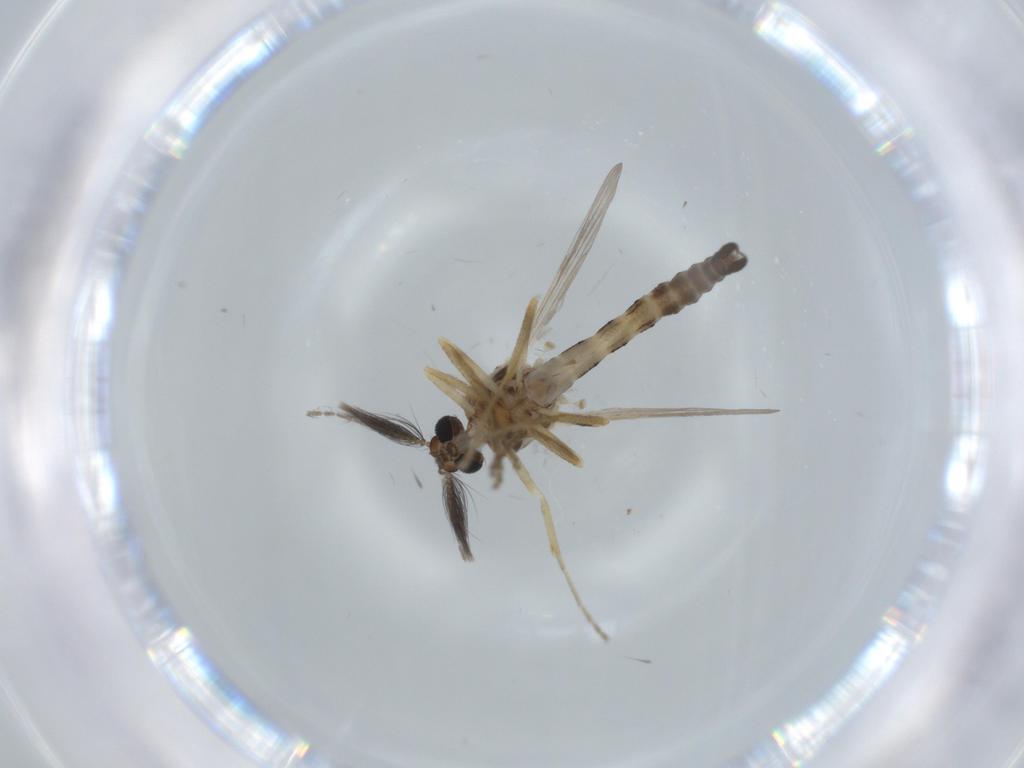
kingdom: Animalia
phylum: Arthropoda
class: Insecta
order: Diptera
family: Ceratopogonidae
